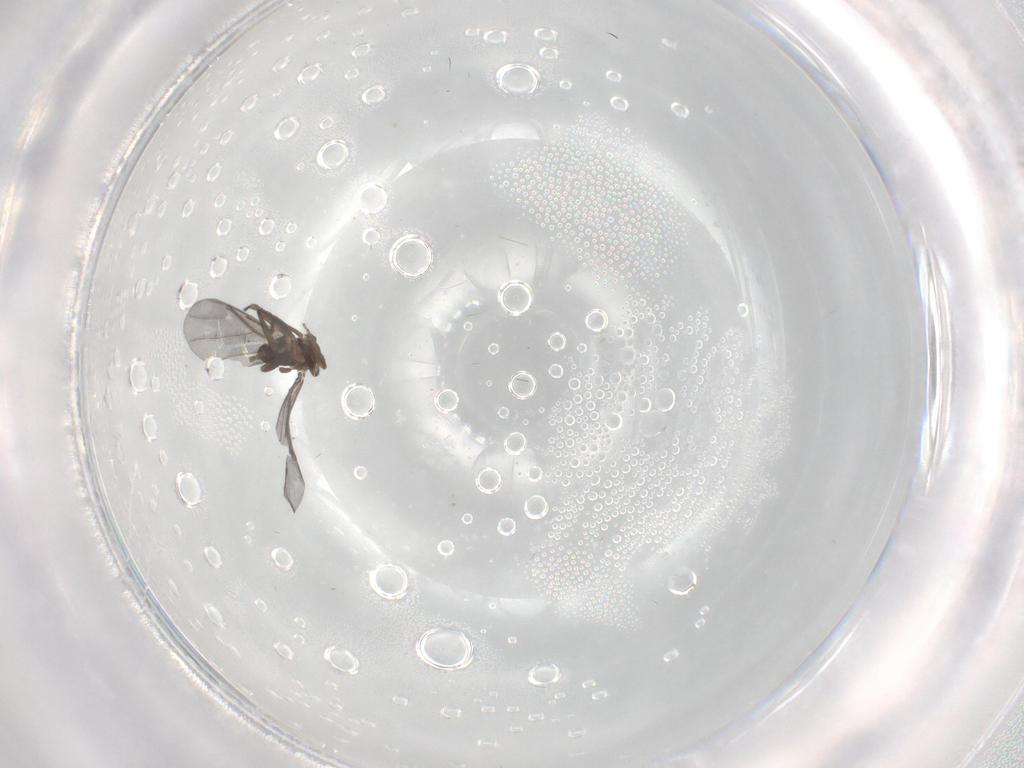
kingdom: Animalia
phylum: Arthropoda
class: Insecta
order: Diptera
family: Phoridae
